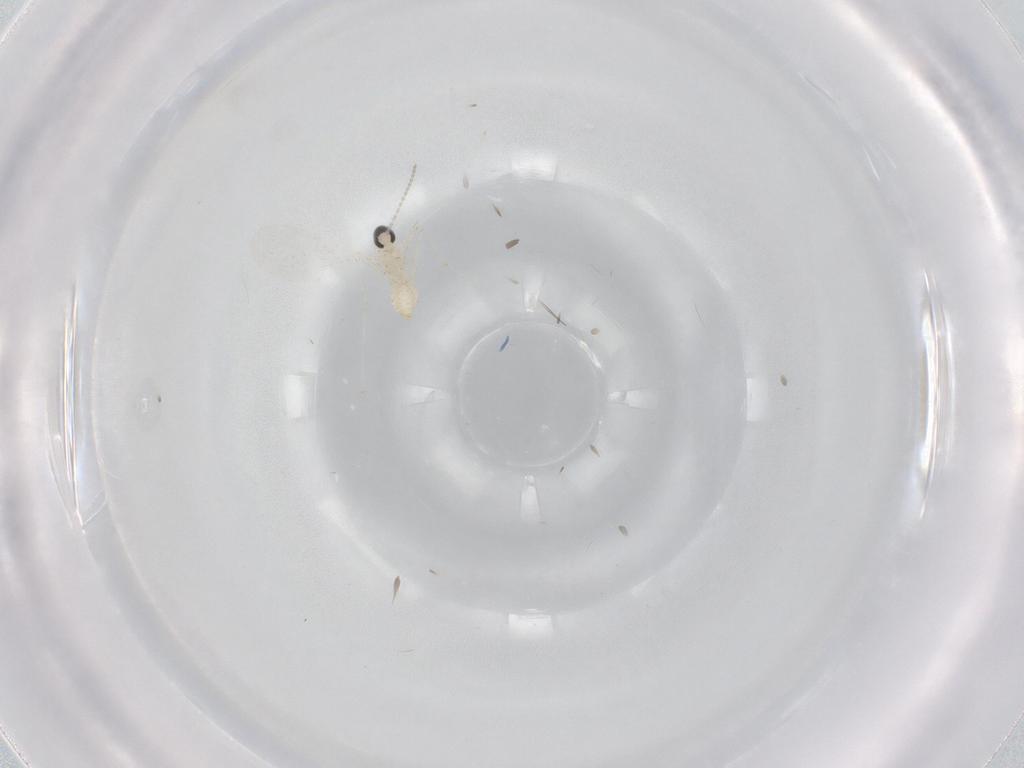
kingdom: Animalia
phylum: Arthropoda
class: Insecta
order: Diptera
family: Cecidomyiidae
